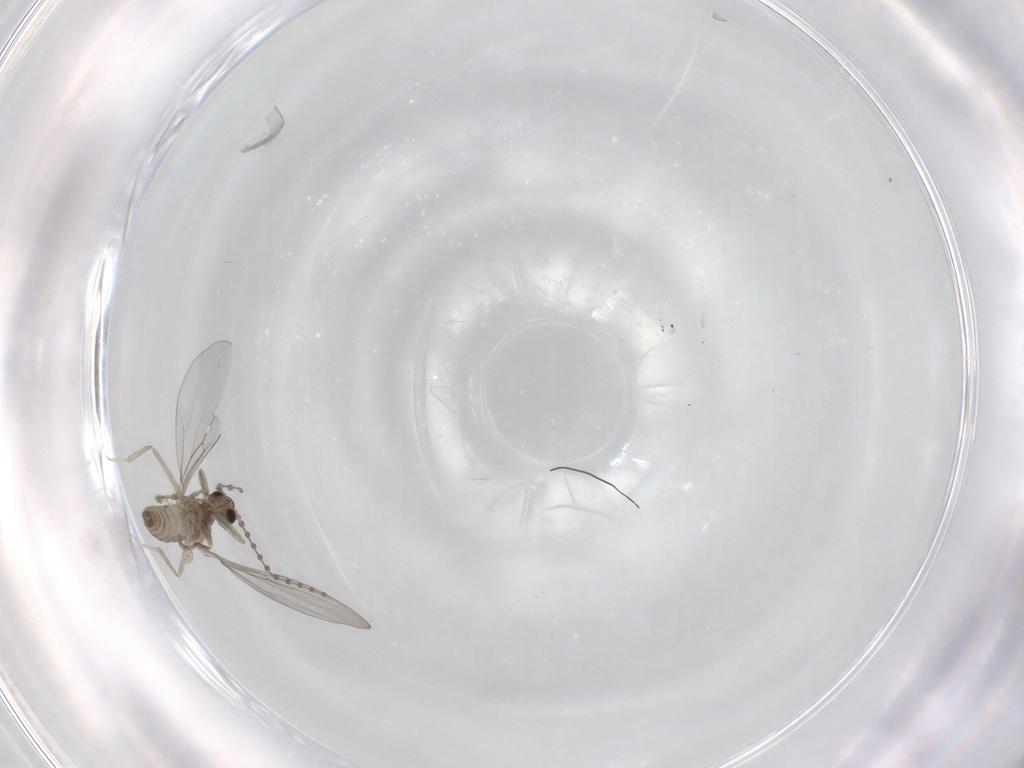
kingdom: Animalia
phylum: Arthropoda
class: Insecta
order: Diptera
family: Cecidomyiidae
